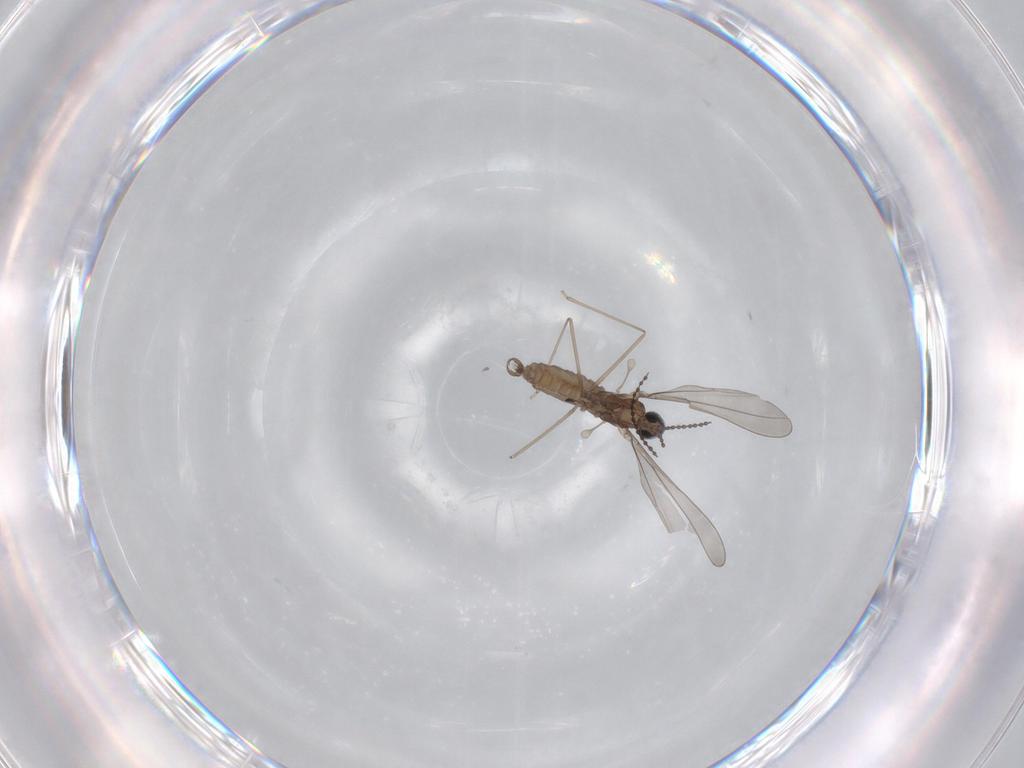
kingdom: Animalia
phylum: Arthropoda
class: Insecta
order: Diptera
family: Cecidomyiidae
